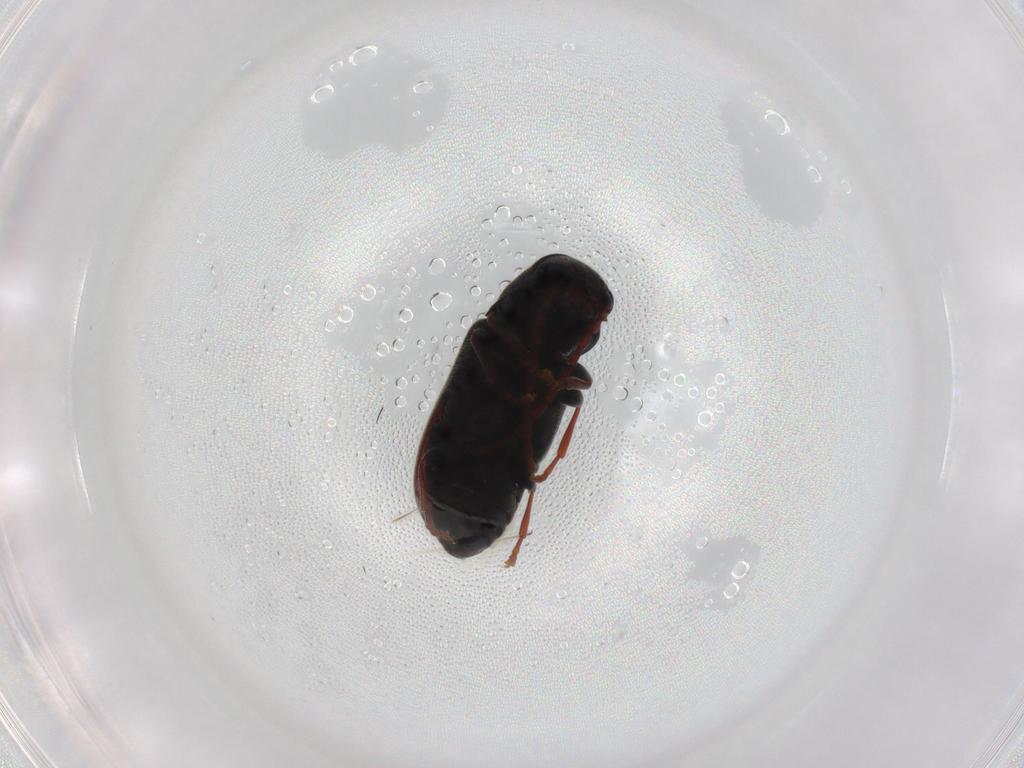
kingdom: Animalia
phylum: Arthropoda
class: Insecta
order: Coleoptera
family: Ptinidae
